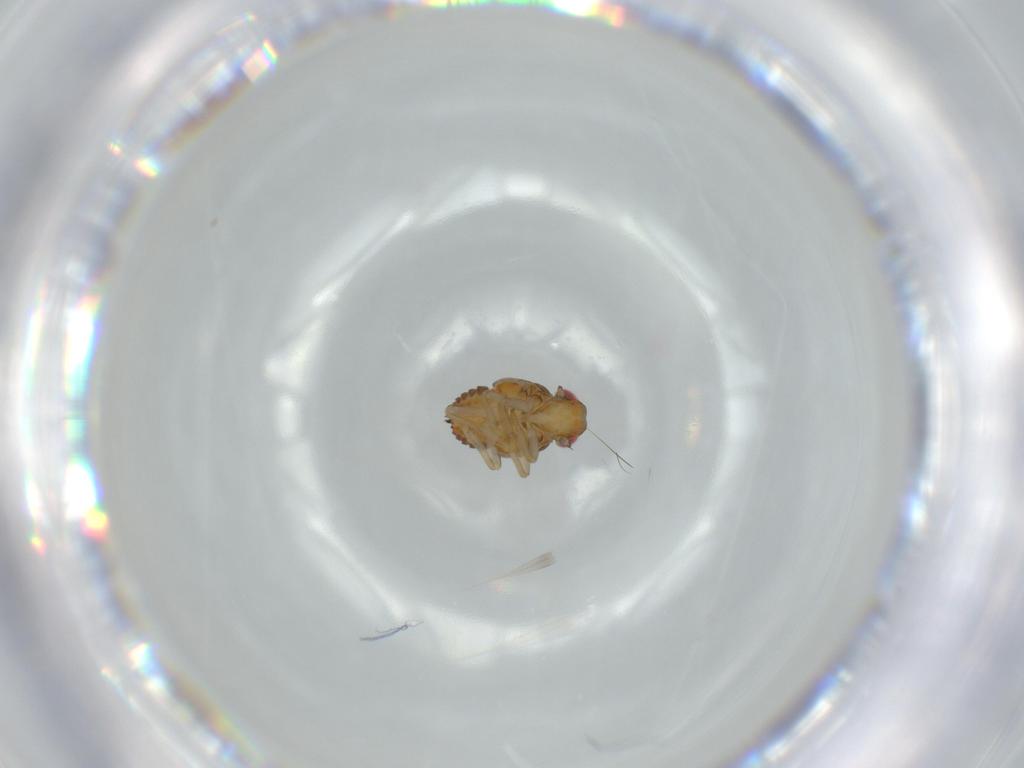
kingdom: Animalia
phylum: Arthropoda
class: Insecta
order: Hemiptera
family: Issidae
